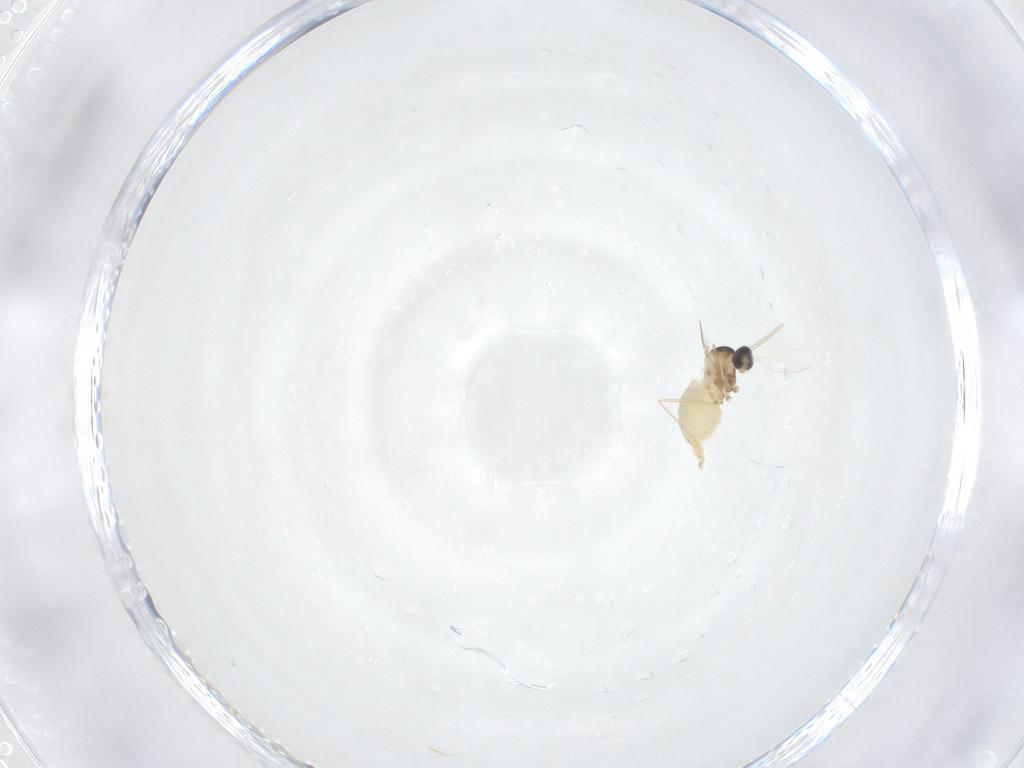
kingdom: Animalia
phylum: Arthropoda
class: Insecta
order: Diptera
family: Cecidomyiidae
